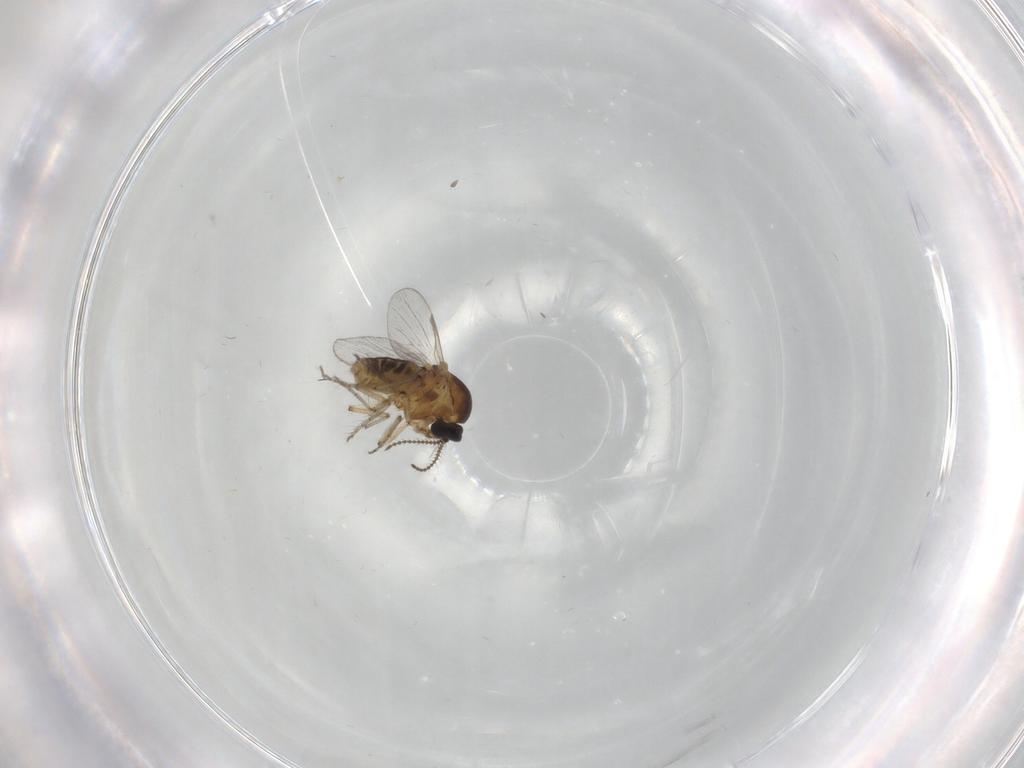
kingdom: Animalia
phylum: Arthropoda
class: Insecta
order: Diptera
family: Ceratopogonidae
